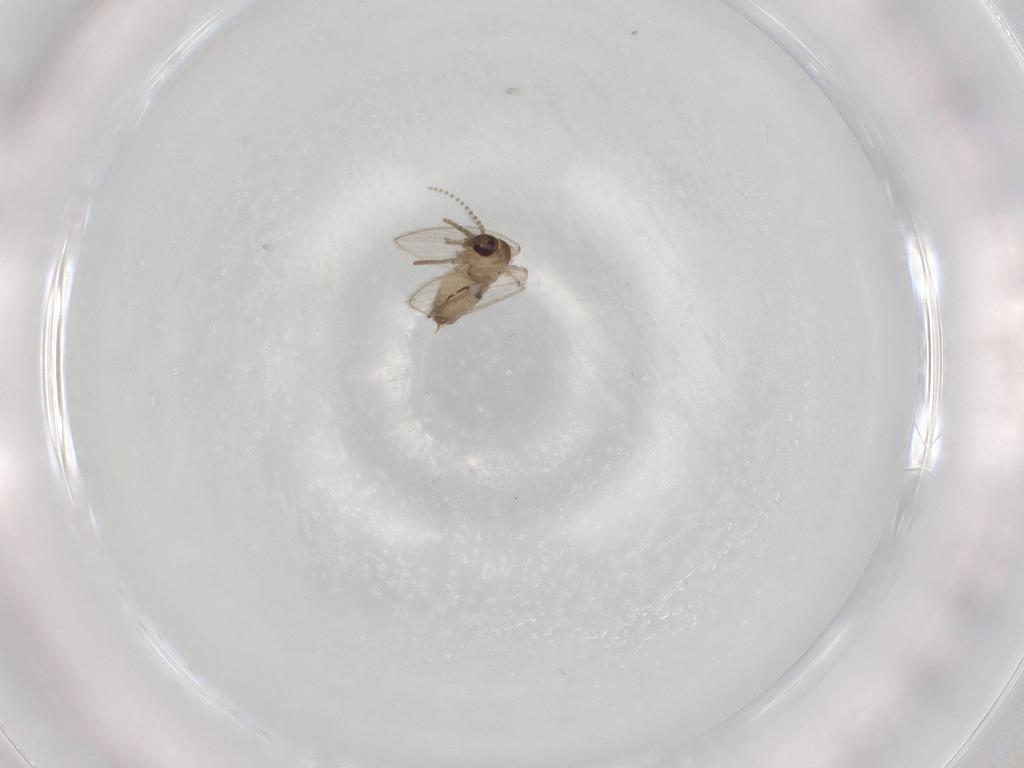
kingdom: Animalia
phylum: Arthropoda
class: Insecta
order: Diptera
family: Psychodidae
